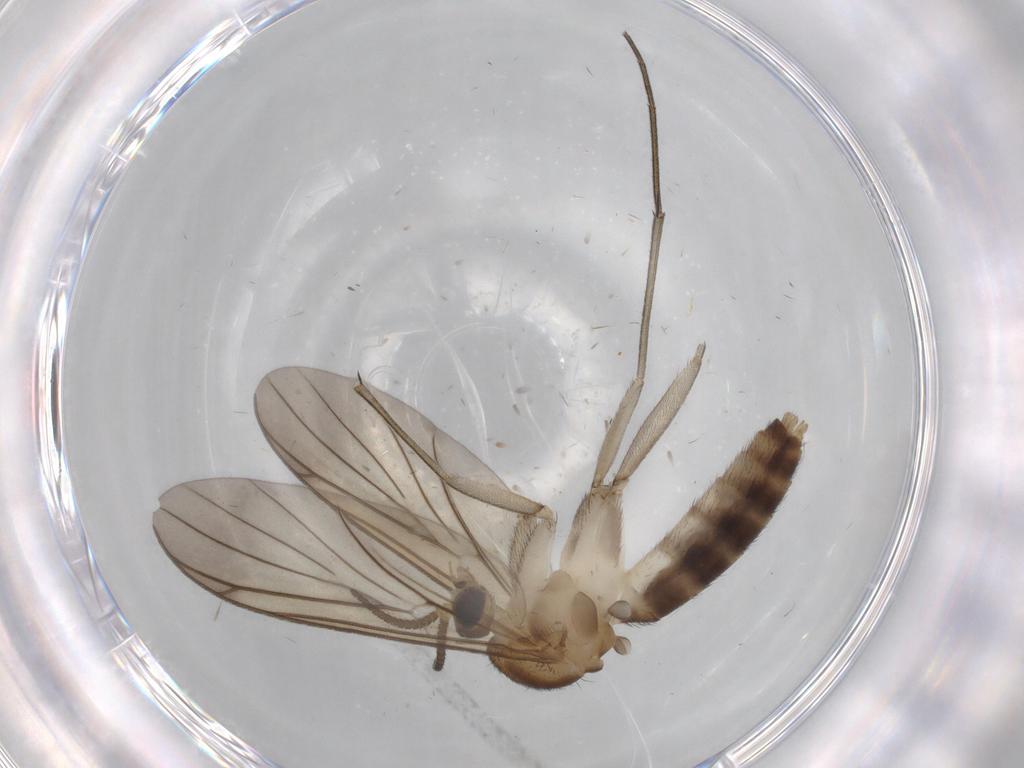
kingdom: Animalia
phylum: Arthropoda
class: Insecta
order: Diptera
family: Mycetophilidae
